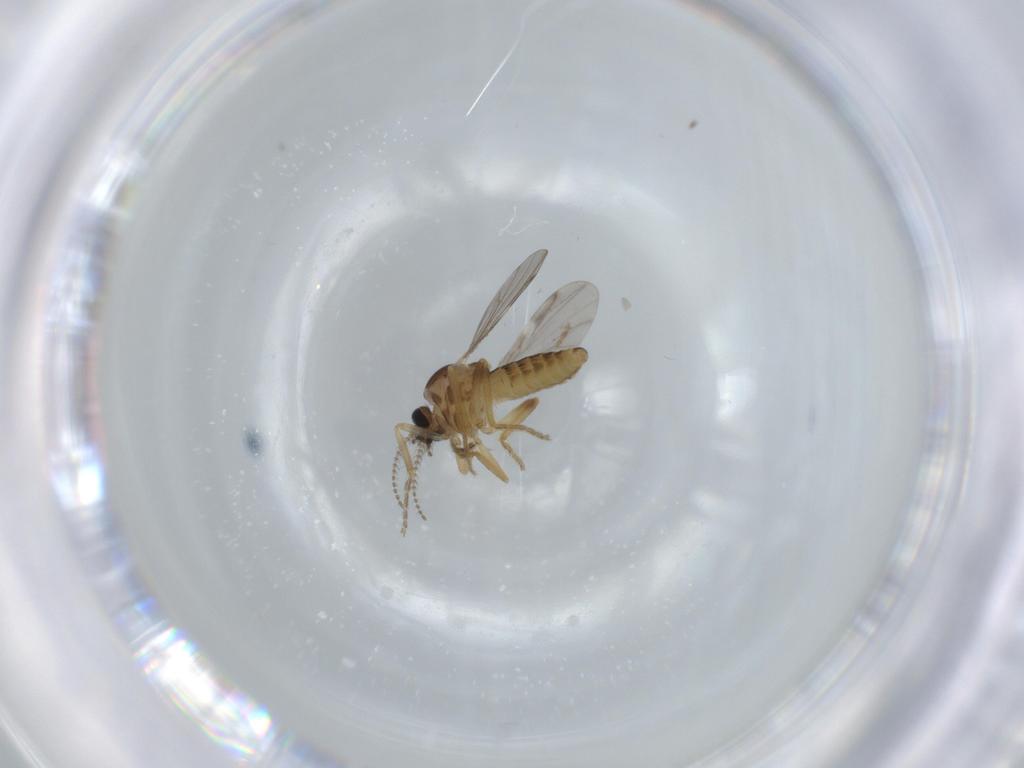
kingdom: Animalia
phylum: Arthropoda
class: Insecta
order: Diptera
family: Ceratopogonidae
